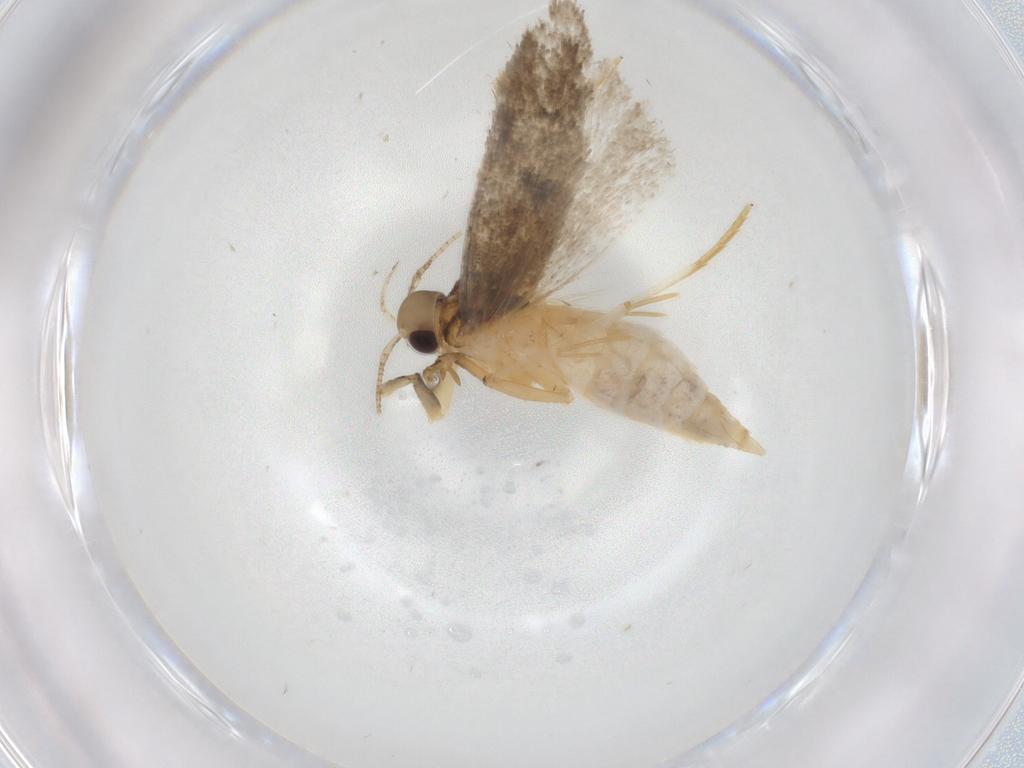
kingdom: Animalia
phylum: Arthropoda
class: Insecta
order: Lepidoptera
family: Autostichidae
